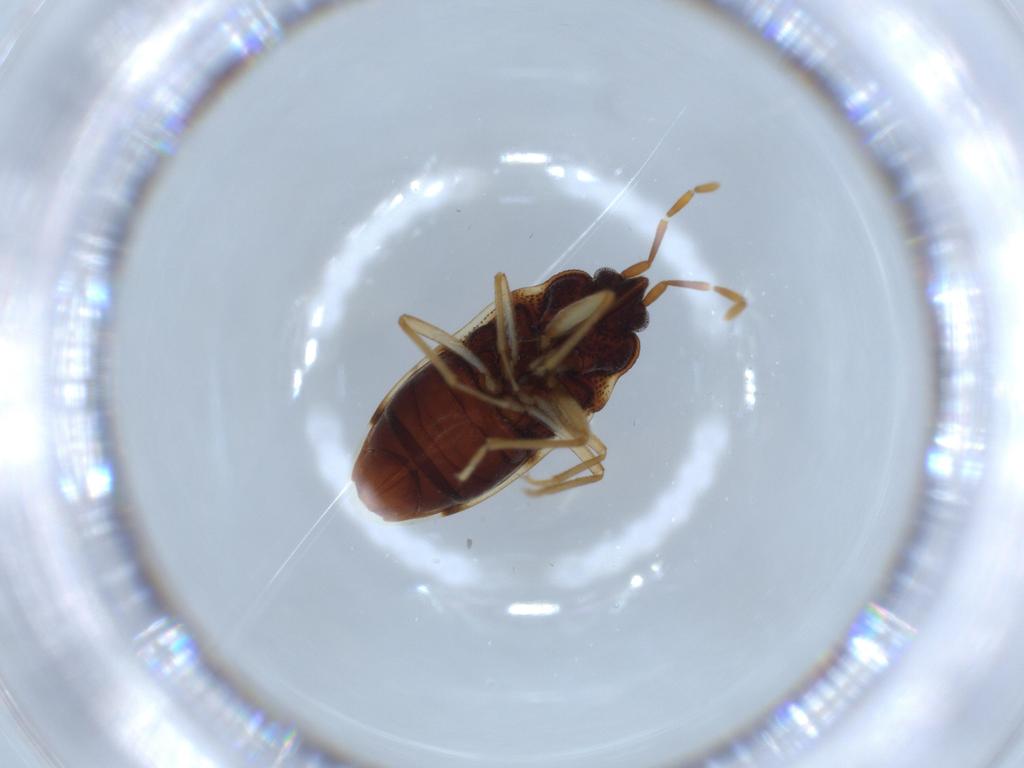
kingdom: Animalia
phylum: Arthropoda
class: Insecta
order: Hemiptera
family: Rhyparochromidae
